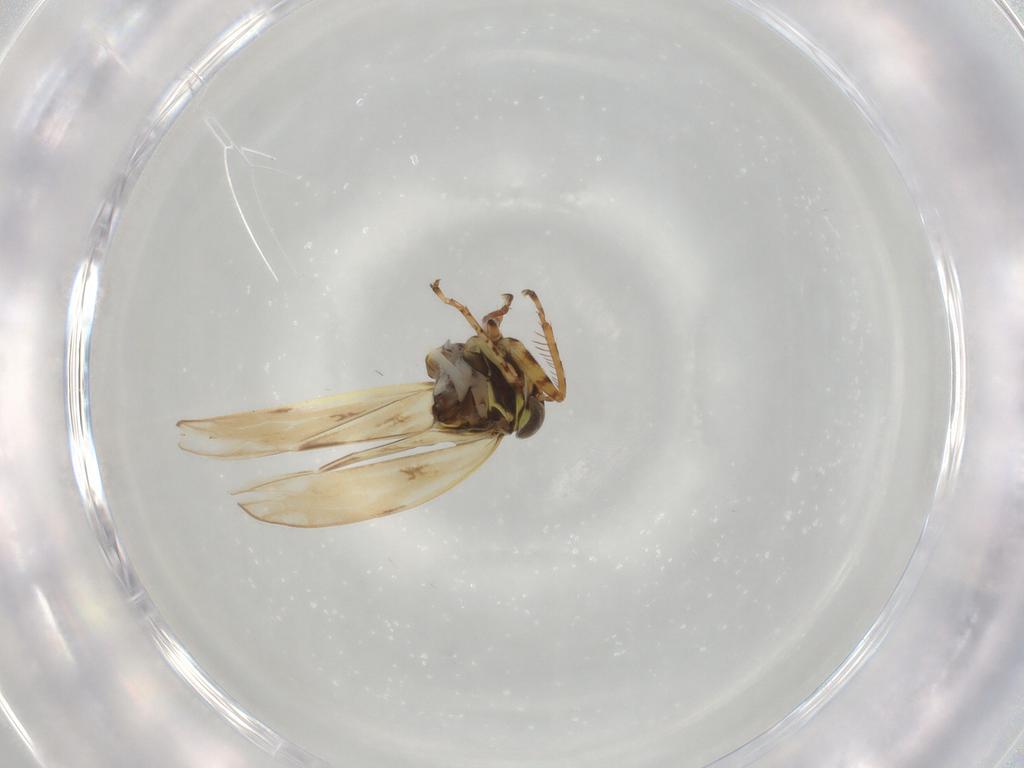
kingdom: Animalia
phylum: Arthropoda
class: Insecta
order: Hemiptera
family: Cicadellidae
